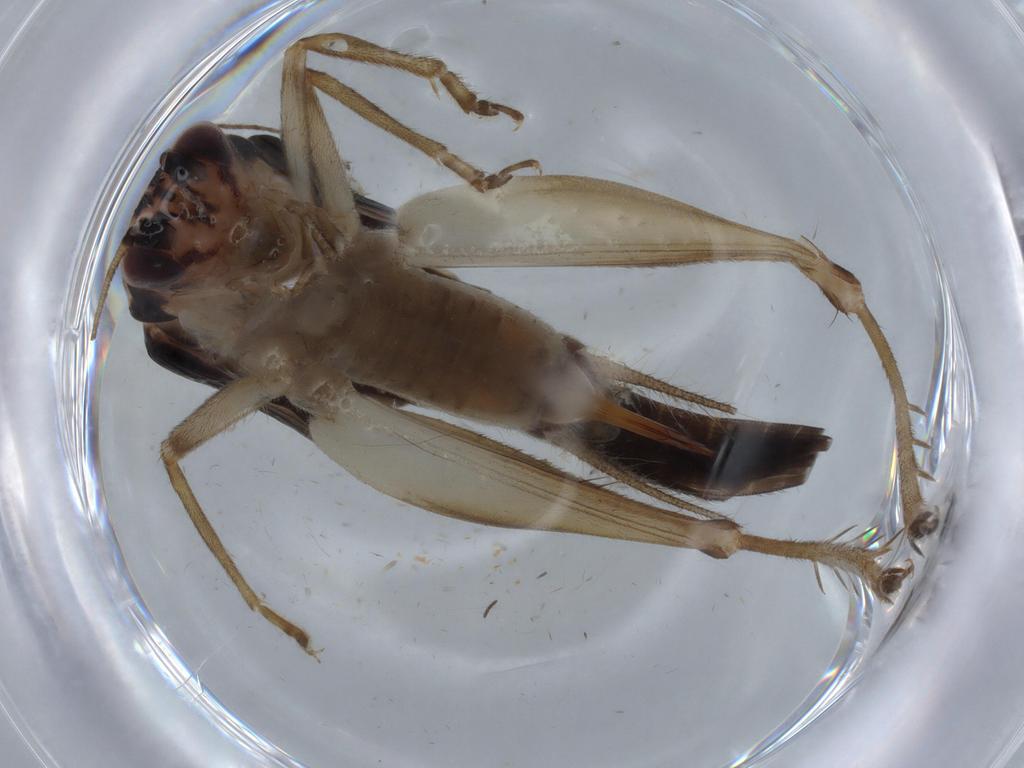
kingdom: Animalia
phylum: Arthropoda
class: Insecta
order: Orthoptera
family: Trigonidiidae
